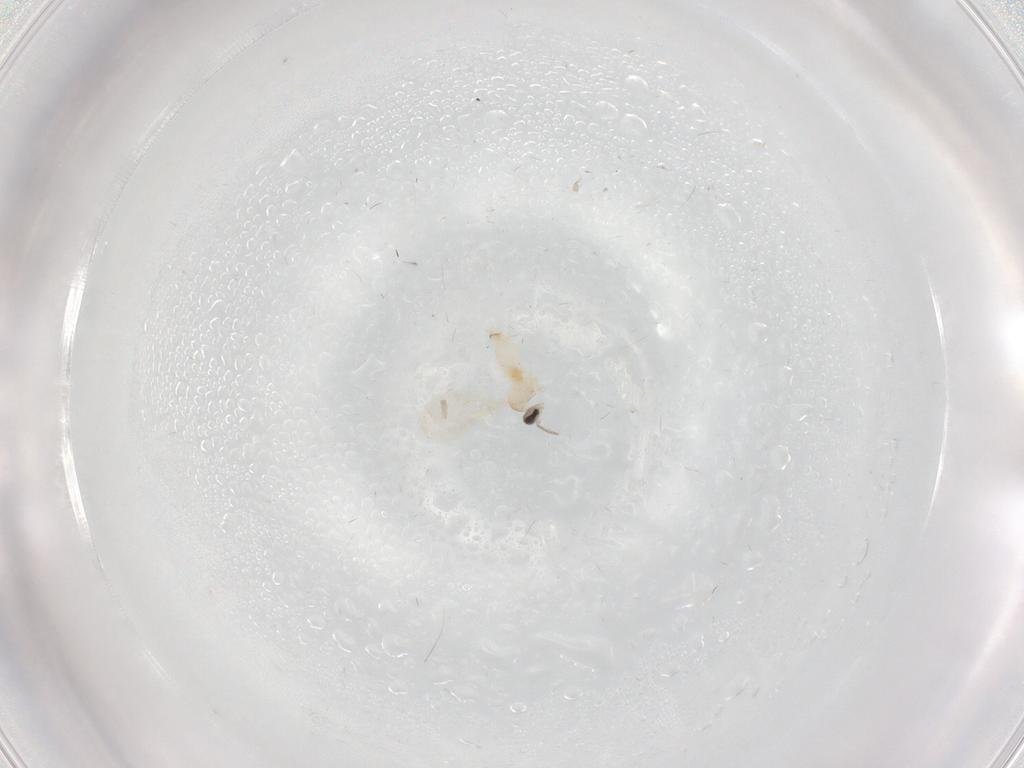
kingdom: Animalia
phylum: Arthropoda
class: Insecta
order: Diptera
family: Cecidomyiidae
